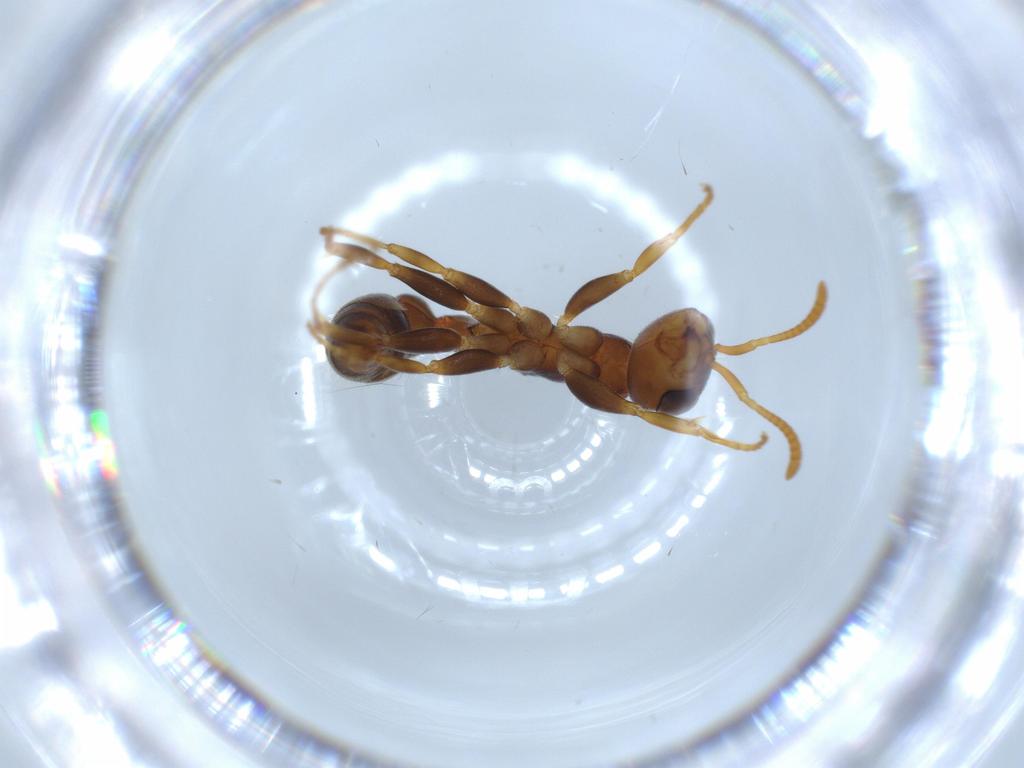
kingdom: Animalia
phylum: Arthropoda
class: Insecta
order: Hymenoptera
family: Formicidae
